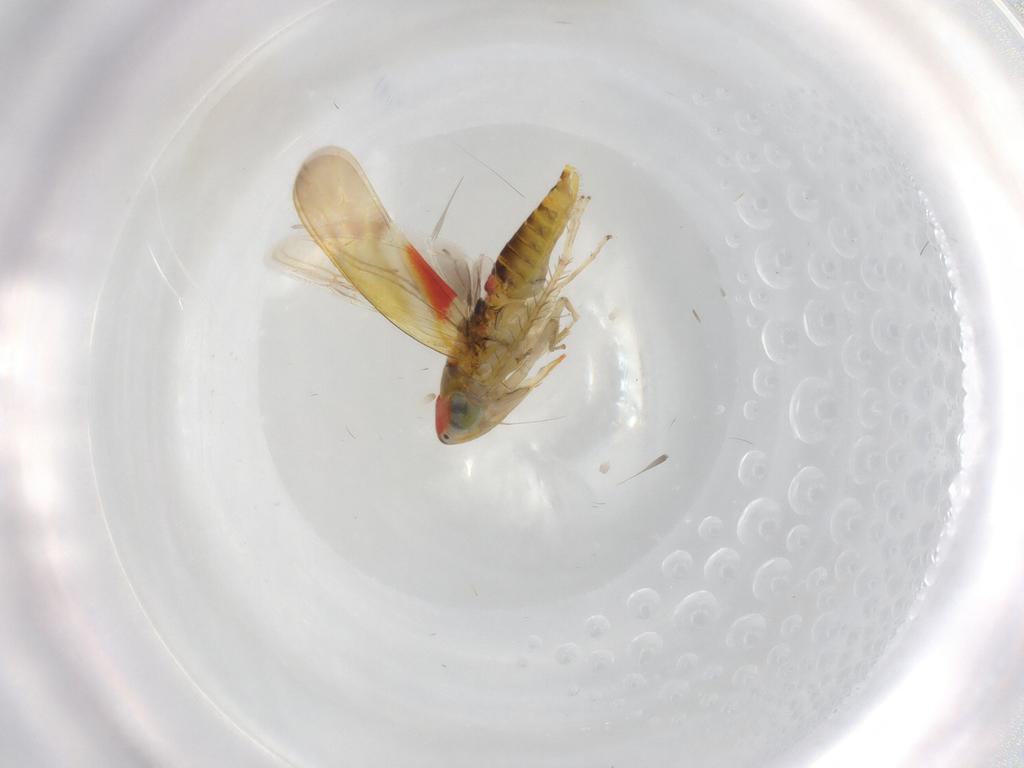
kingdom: Animalia
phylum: Arthropoda
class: Insecta
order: Hemiptera
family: Cicadellidae
